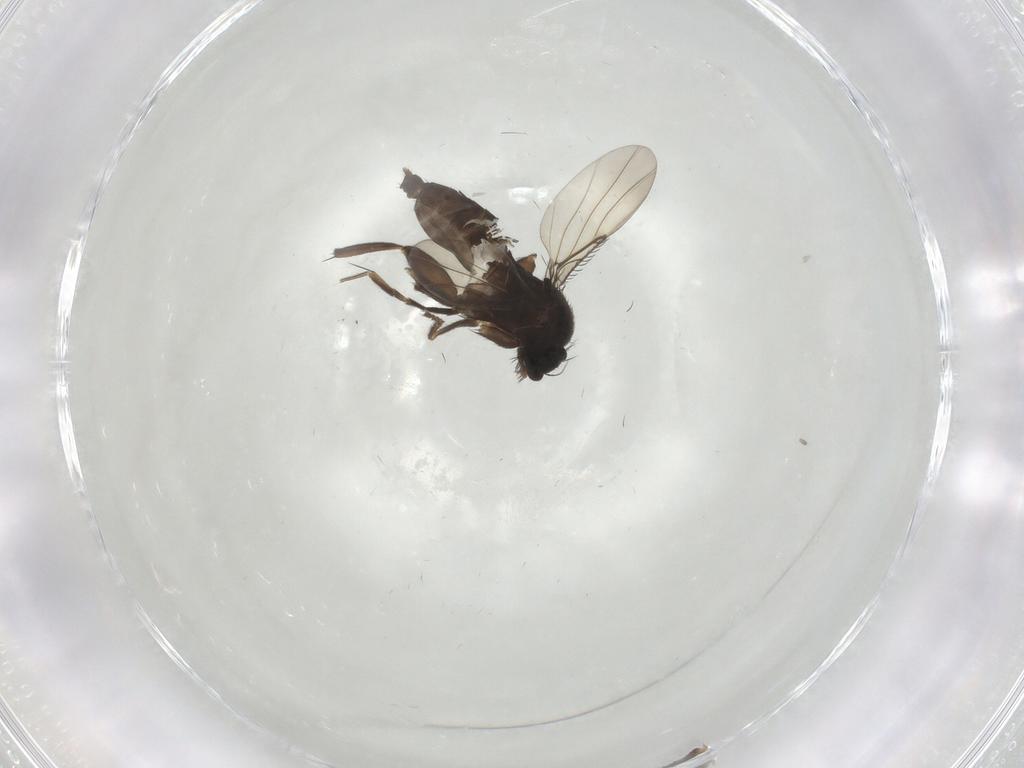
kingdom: Animalia
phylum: Arthropoda
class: Insecta
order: Diptera
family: Phoridae
